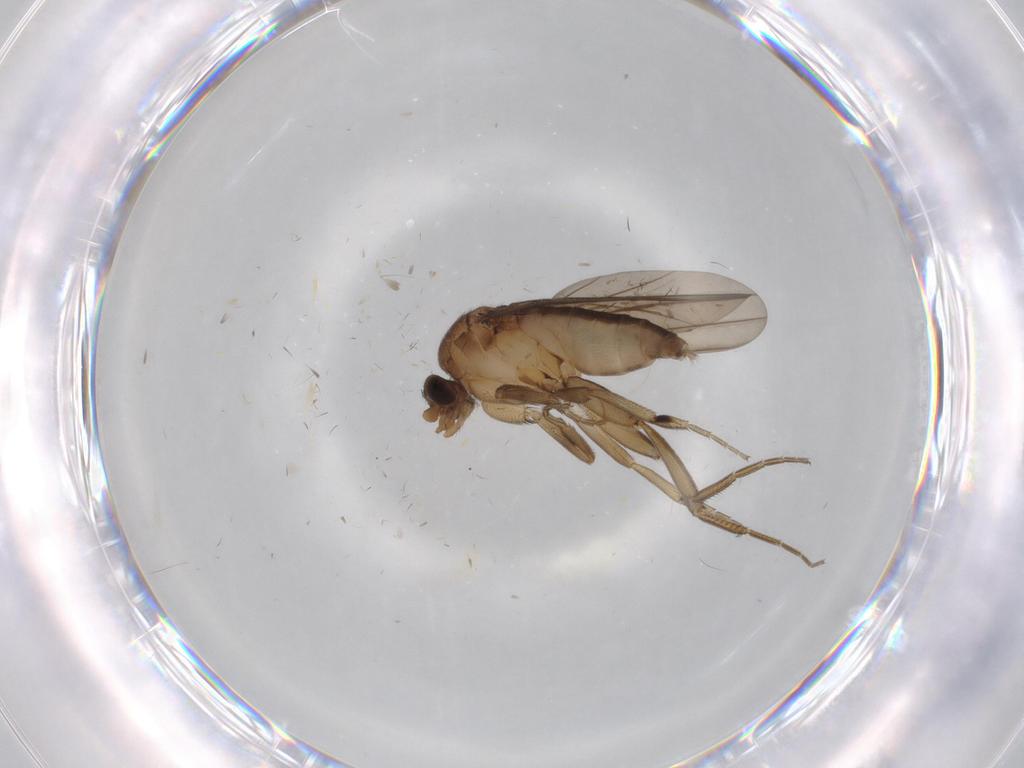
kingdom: Animalia
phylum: Arthropoda
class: Insecta
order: Diptera
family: Phoridae
